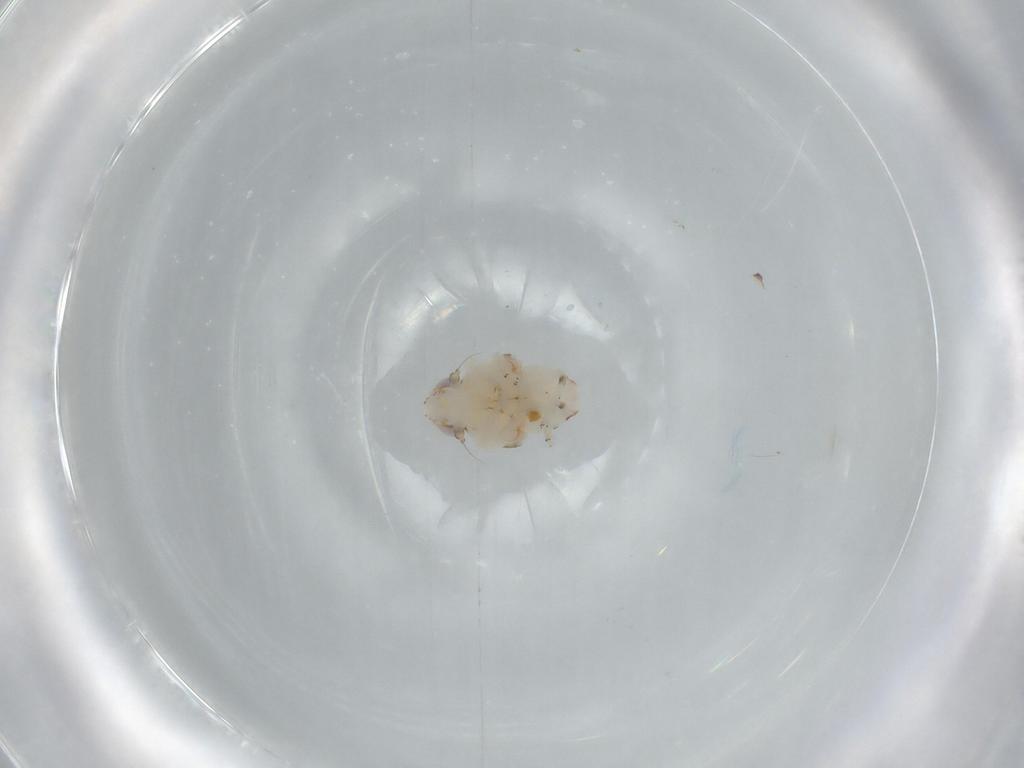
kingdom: Animalia
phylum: Arthropoda
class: Insecta
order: Hemiptera
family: Nogodinidae
